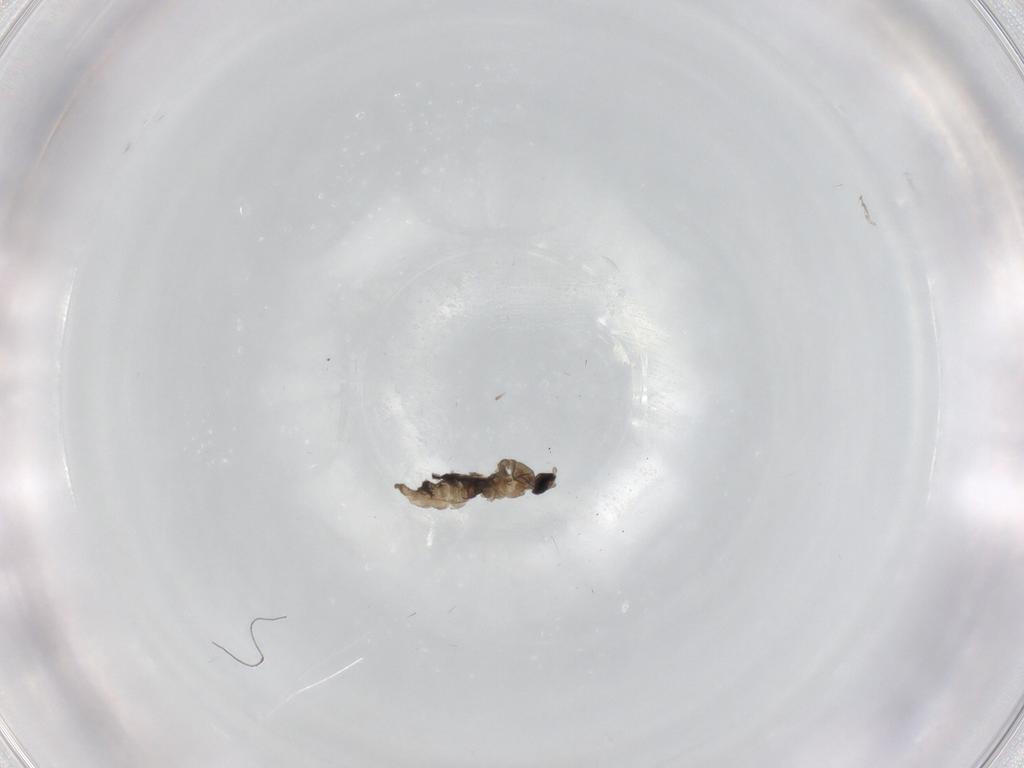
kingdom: Animalia
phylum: Arthropoda
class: Insecta
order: Diptera
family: Cecidomyiidae
